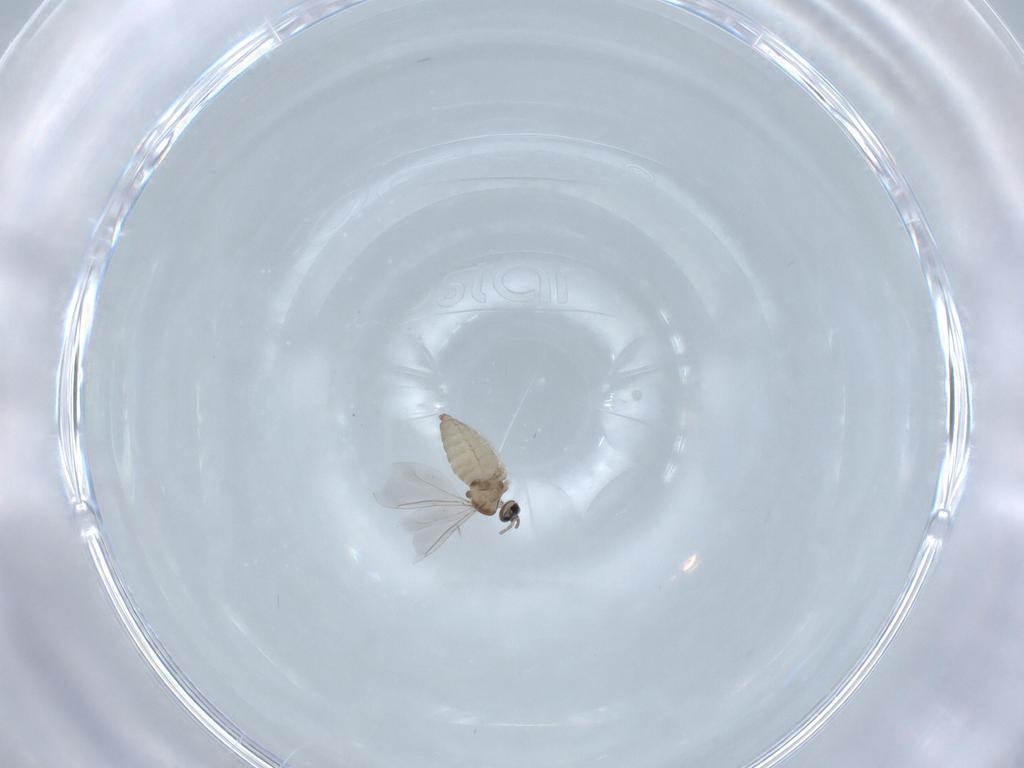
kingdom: Animalia
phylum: Arthropoda
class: Insecta
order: Diptera
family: Cecidomyiidae
